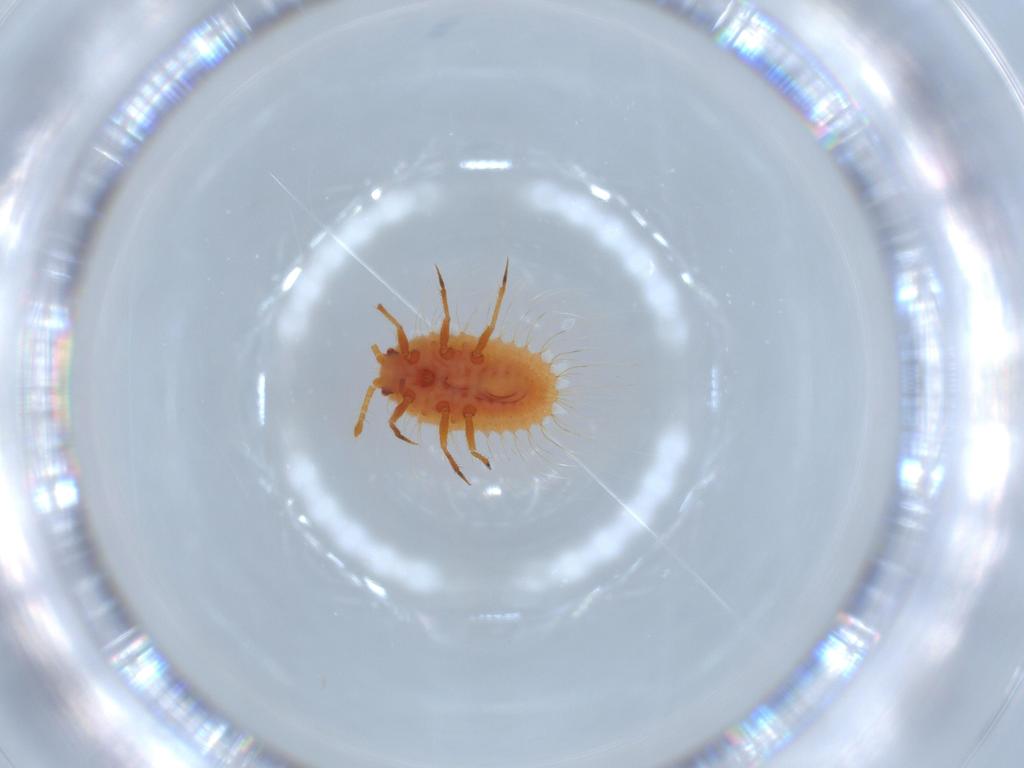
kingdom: Animalia
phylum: Arthropoda
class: Insecta
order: Hemiptera
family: Coccoidea_incertae_sedis
